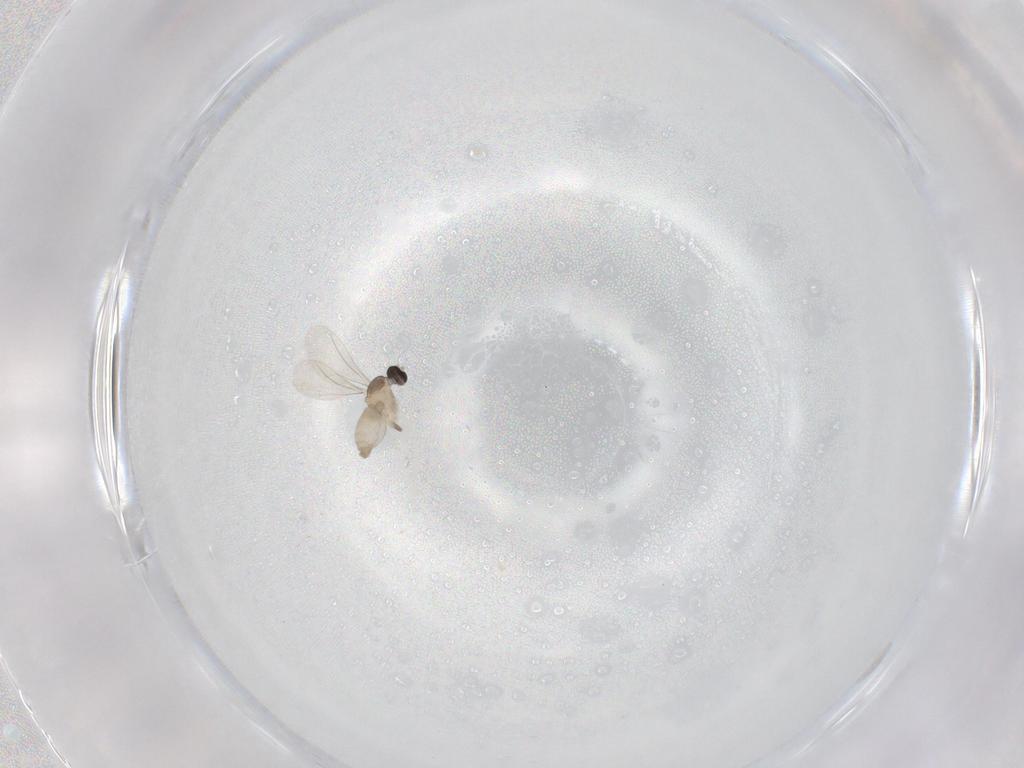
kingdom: Animalia
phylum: Arthropoda
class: Insecta
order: Diptera
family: Cecidomyiidae
